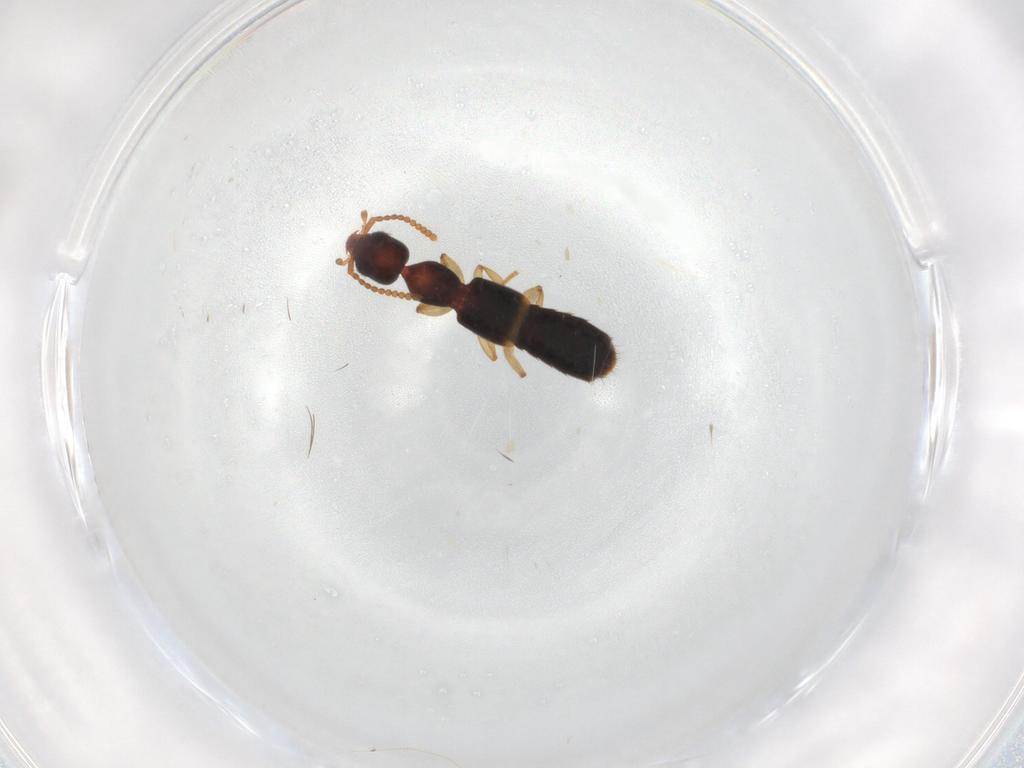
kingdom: Animalia
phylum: Arthropoda
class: Insecta
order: Coleoptera
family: Staphylinidae
